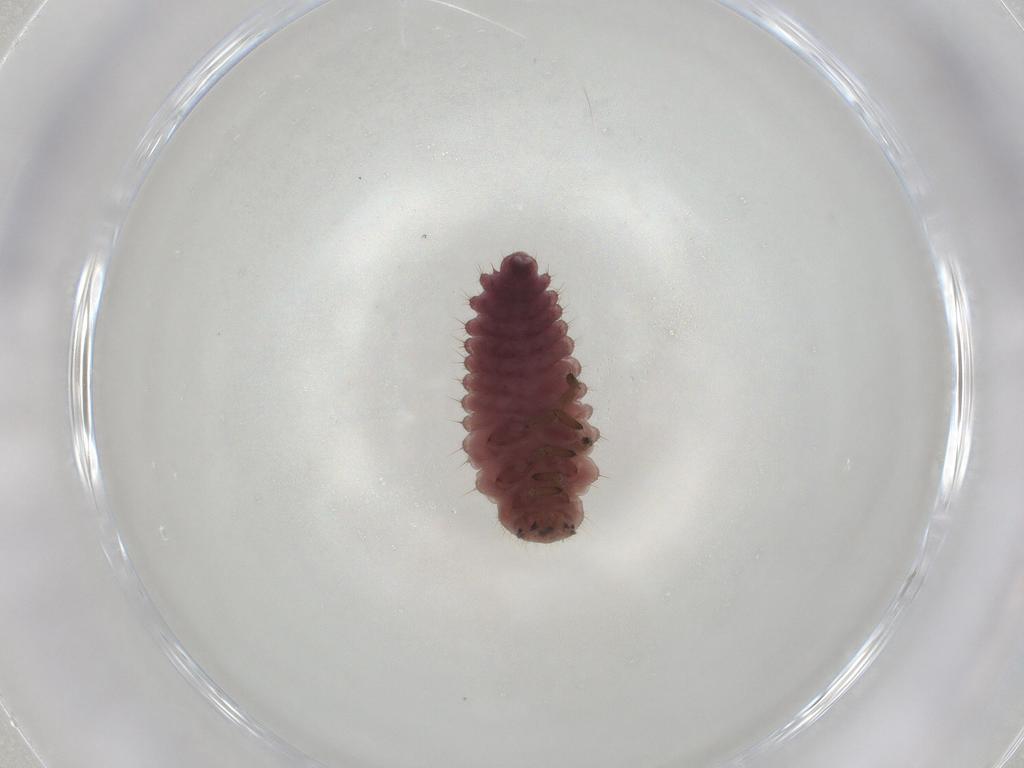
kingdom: Animalia
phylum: Arthropoda
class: Insecta
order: Coleoptera
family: Coccinellidae
